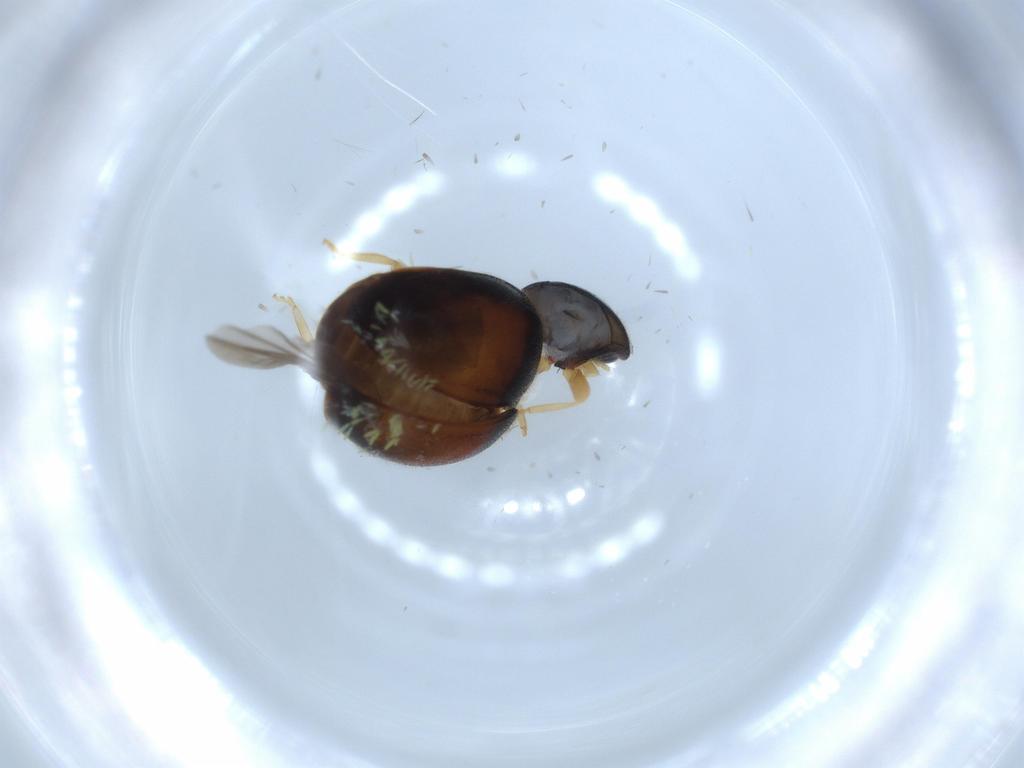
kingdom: Animalia
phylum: Arthropoda
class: Insecta
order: Coleoptera
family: Coccinellidae
